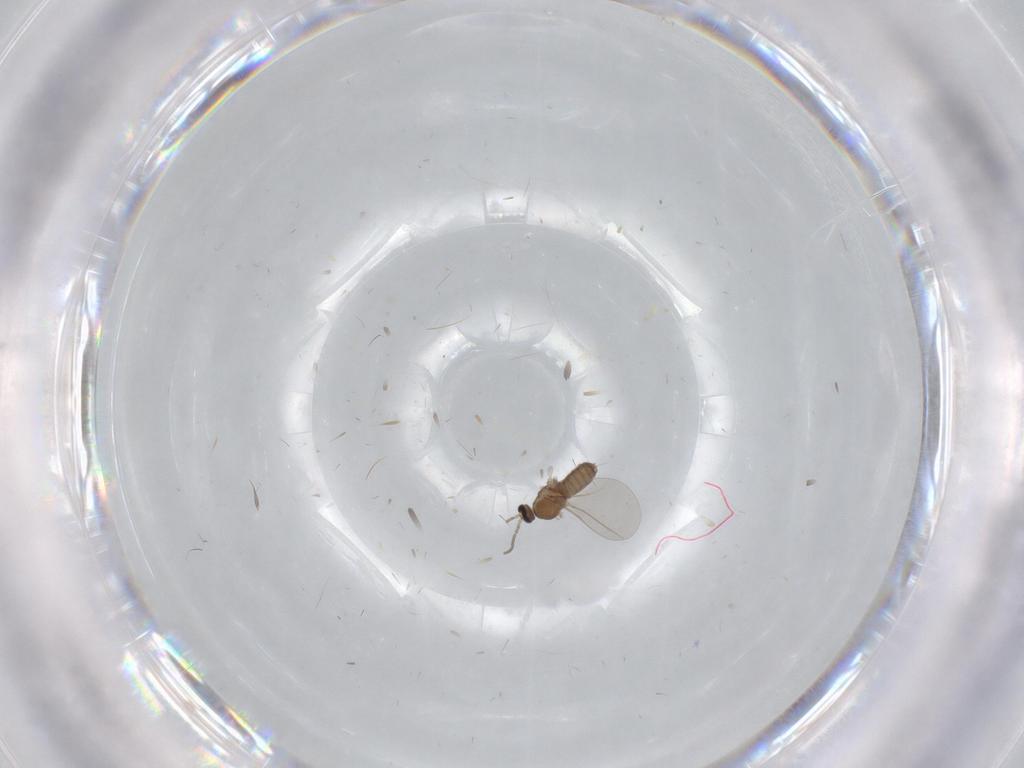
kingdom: Animalia
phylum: Arthropoda
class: Insecta
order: Diptera
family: Cecidomyiidae
